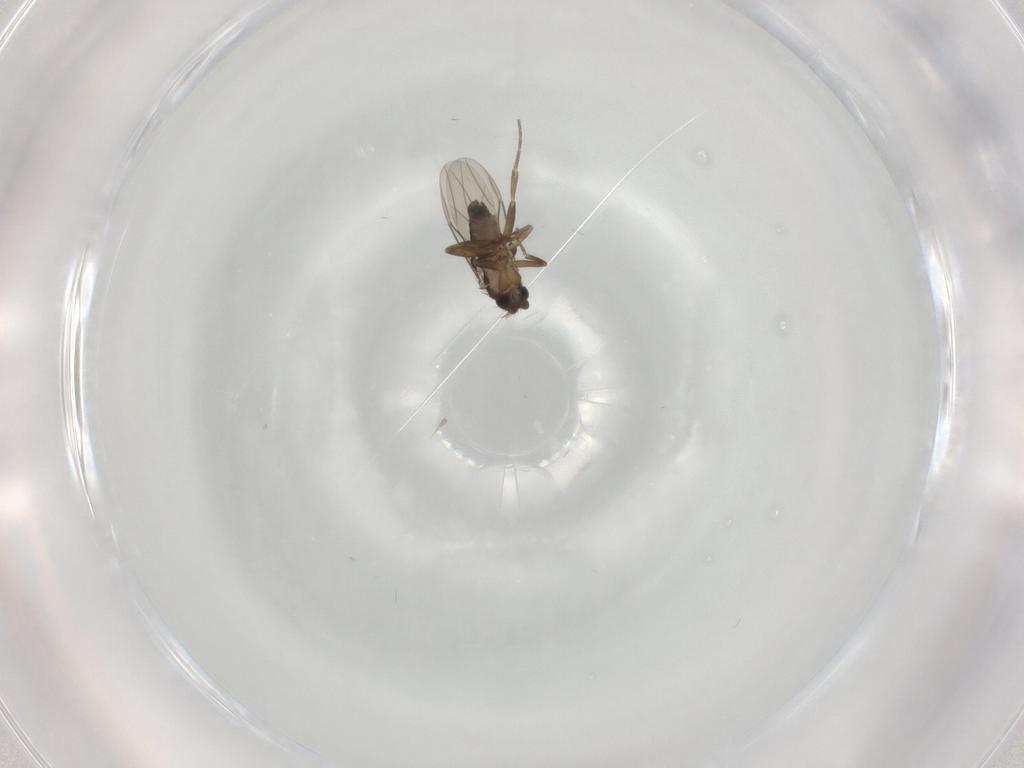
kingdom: Animalia
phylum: Arthropoda
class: Insecta
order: Diptera
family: Phoridae
